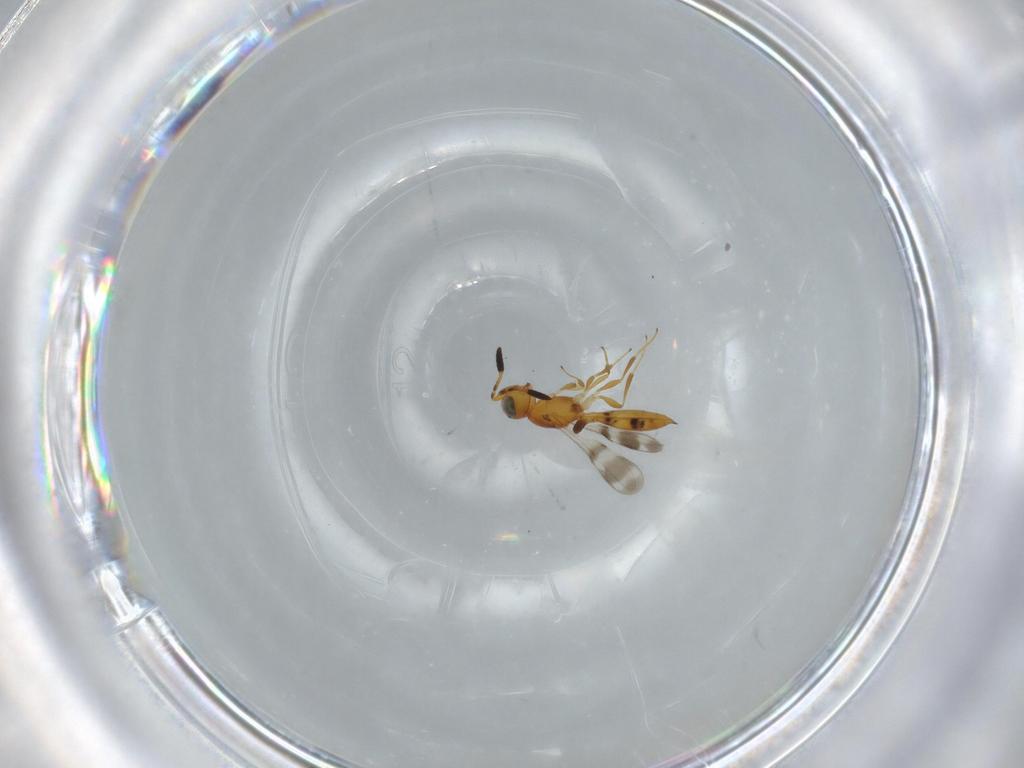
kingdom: Animalia
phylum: Arthropoda
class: Insecta
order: Hymenoptera
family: Scelionidae
